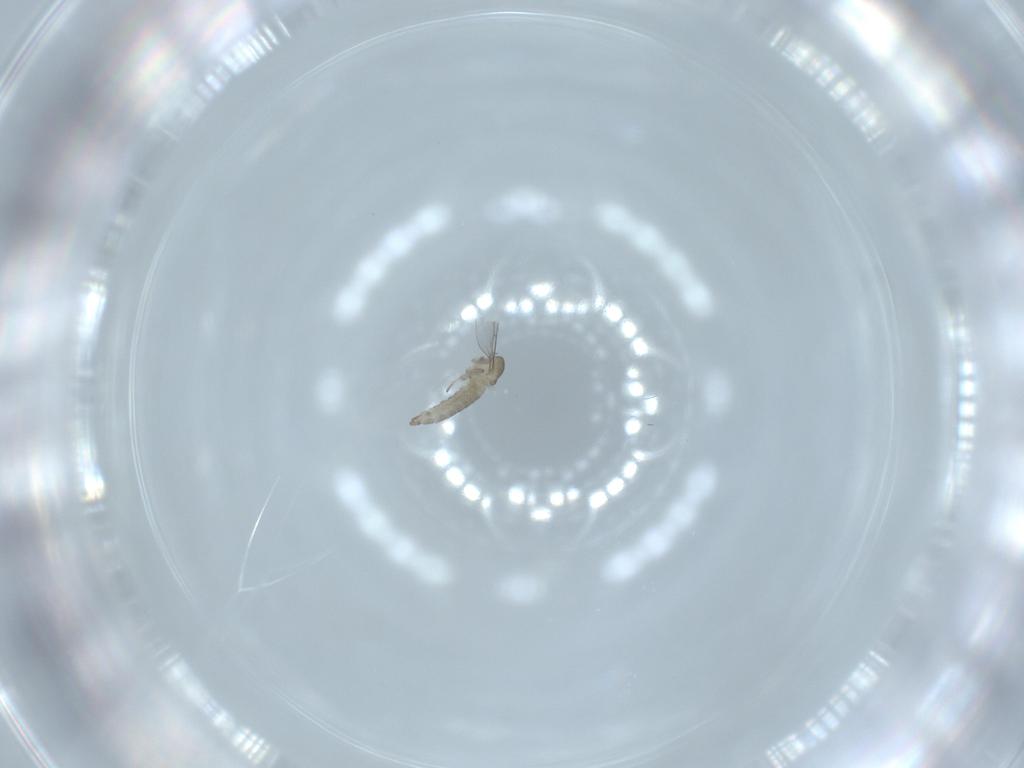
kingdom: Animalia
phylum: Arthropoda
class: Insecta
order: Diptera
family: Cecidomyiidae
